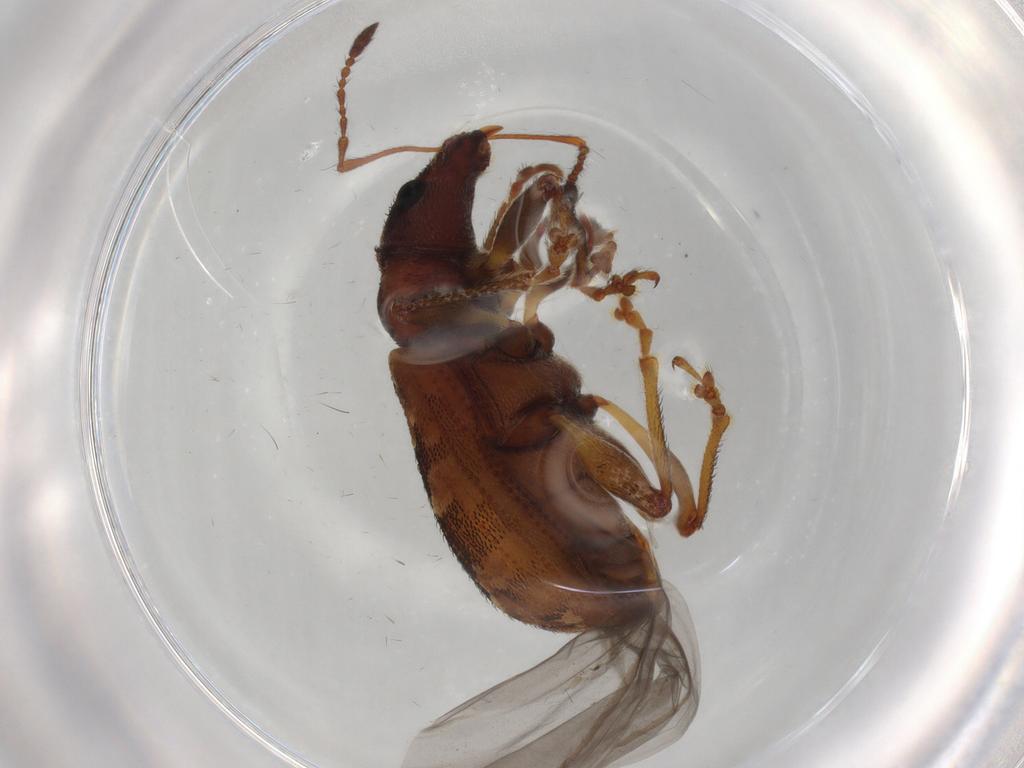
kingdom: Animalia
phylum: Arthropoda
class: Insecta
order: Coleoptera
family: Curculionidae
